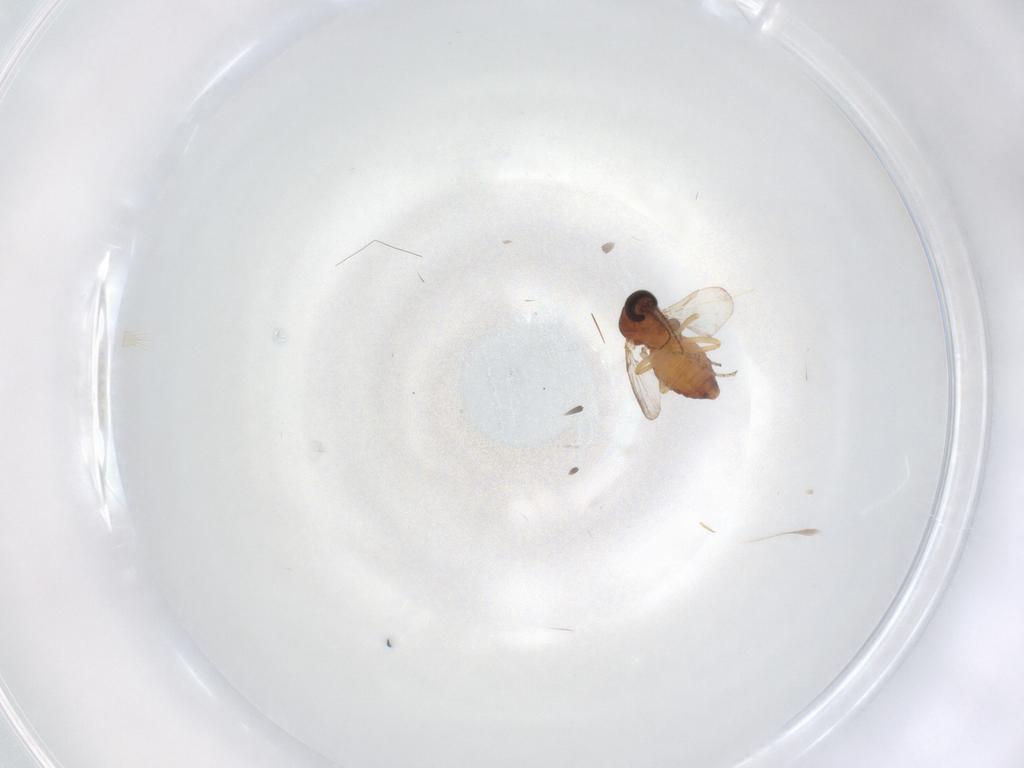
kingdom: Animalia
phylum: Arthropoda
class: Insecta
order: Diptera
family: Ceratopogonidae
